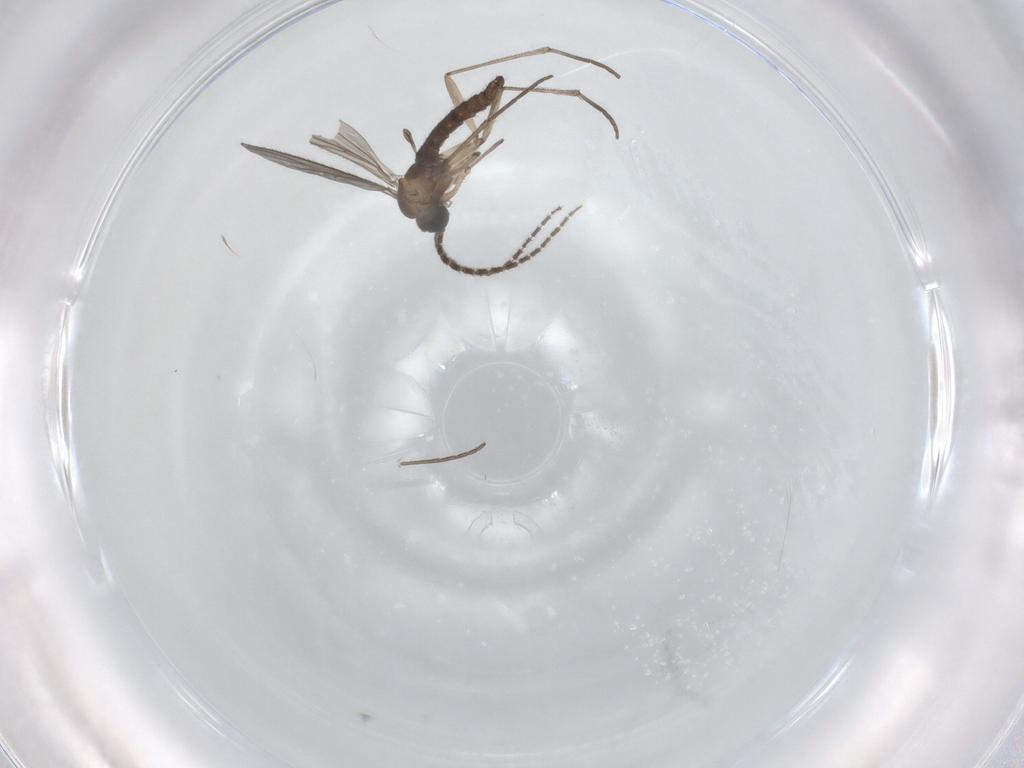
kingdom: Animalia
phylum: Arthropoda
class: Insecta
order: Diptera
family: Sciaridae
